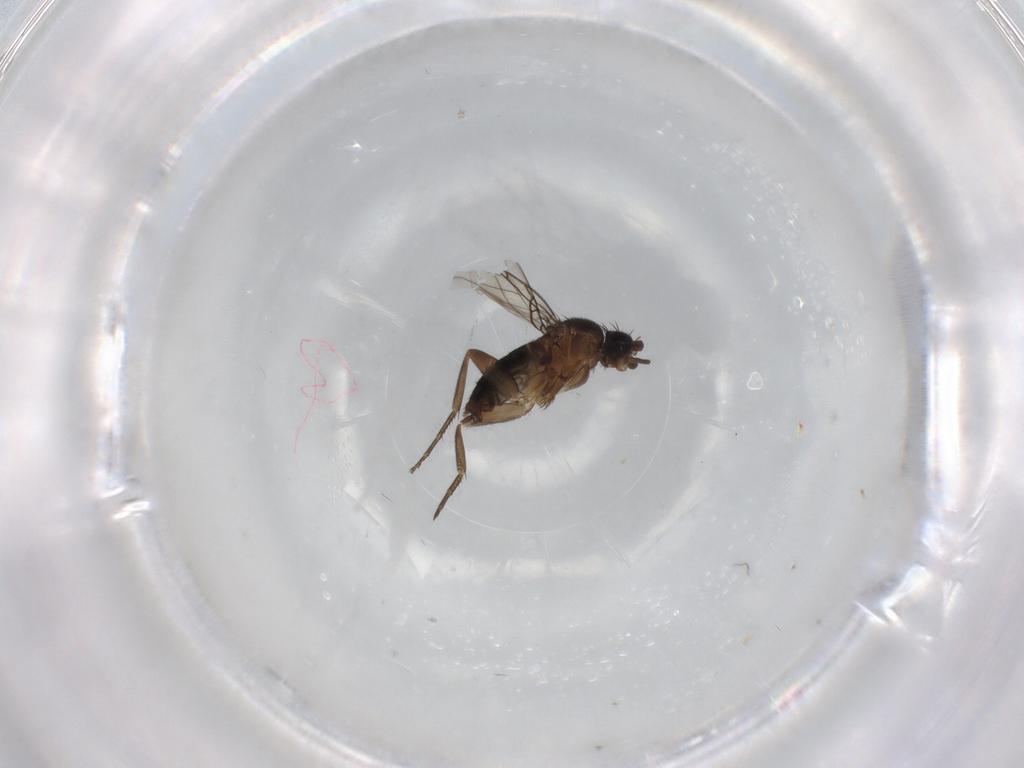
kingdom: Animalia
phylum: Arthropoda
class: Insecta
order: Diptera
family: Phoridae
